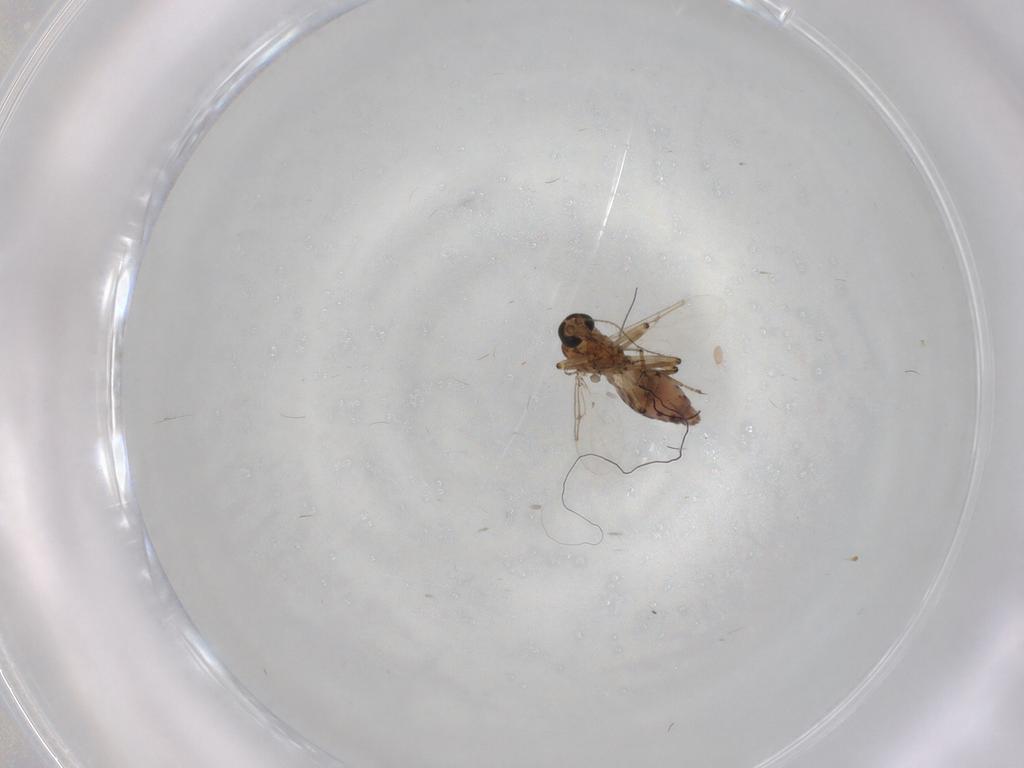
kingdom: Animalia
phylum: Arthropoda
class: Insecta
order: Diptera
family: Ceratopogonidae
